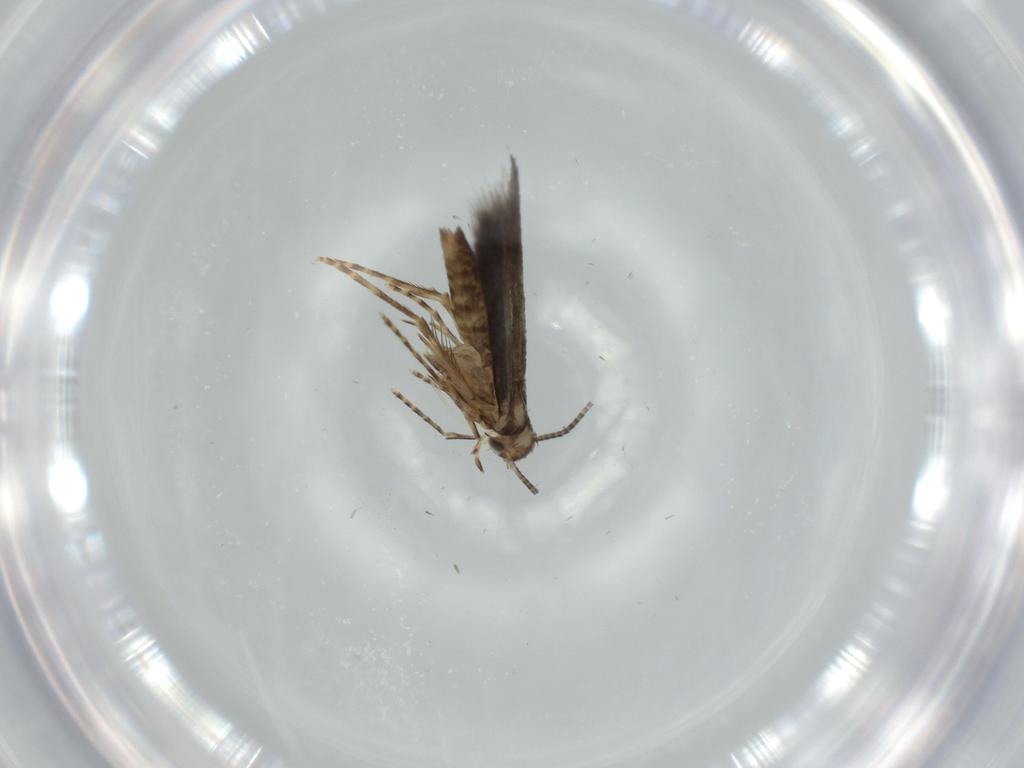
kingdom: Animalia
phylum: Arthropoda
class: Insecta
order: Lepidoptera
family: Gracillariidae
